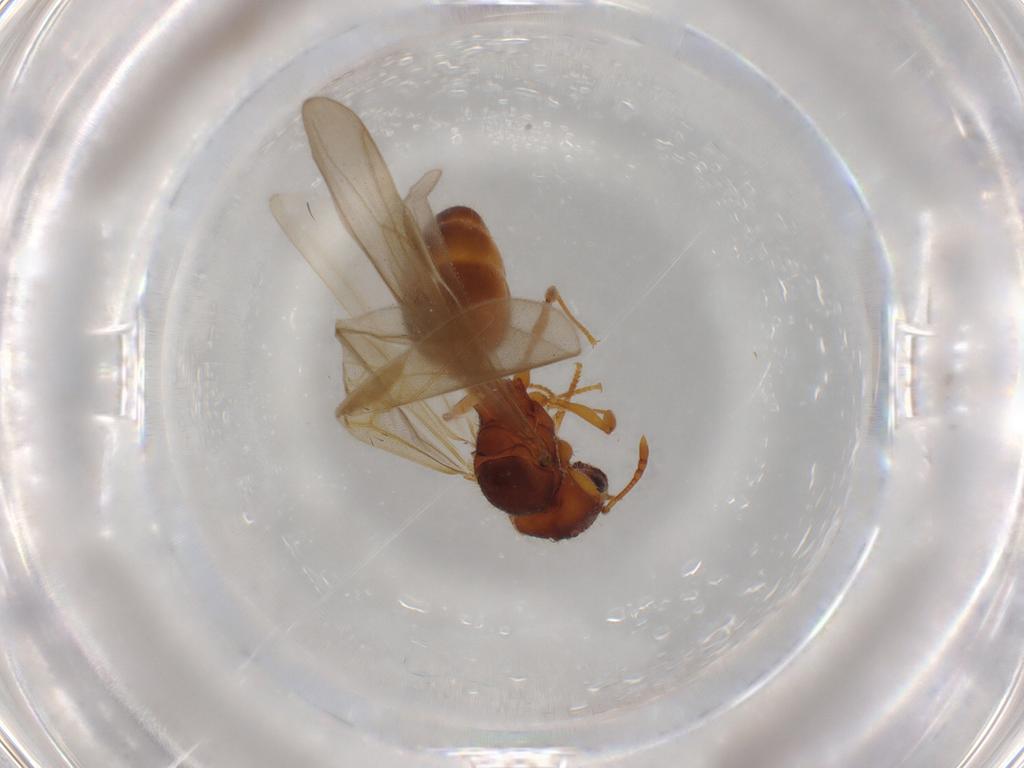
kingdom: Animalia
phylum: Arthropoda
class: Insecta
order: Hymenoptera
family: Formicidae
